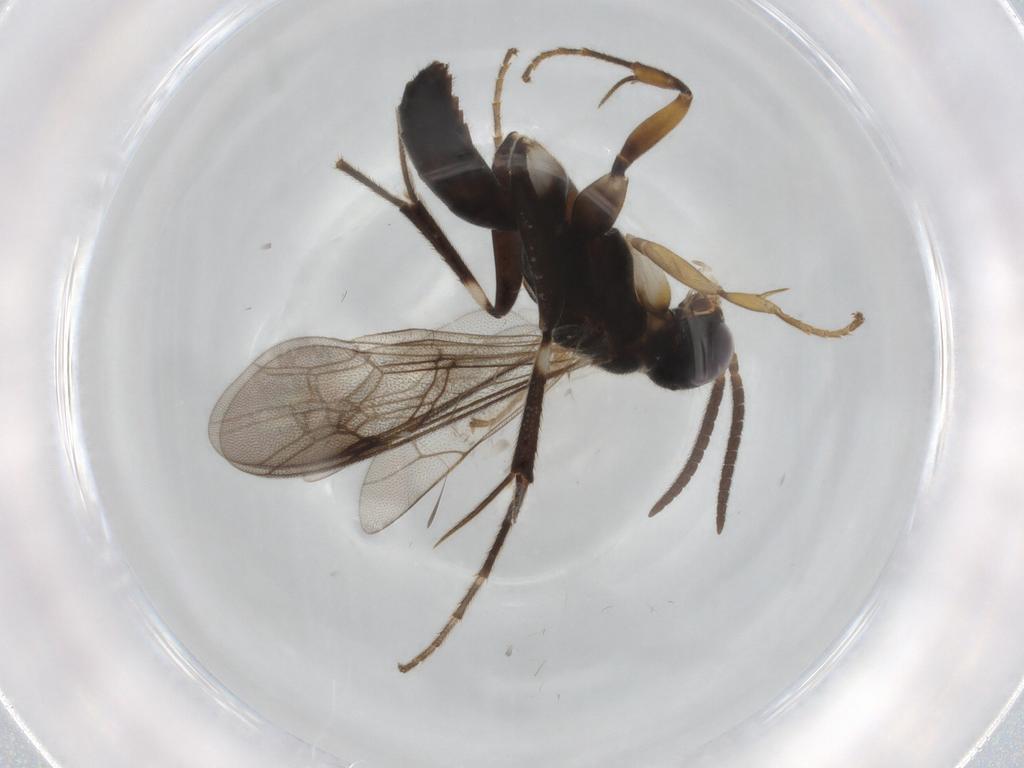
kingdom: Animalia
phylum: Arthropoda
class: Insecta
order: Hymenoptera
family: Pompilidae
